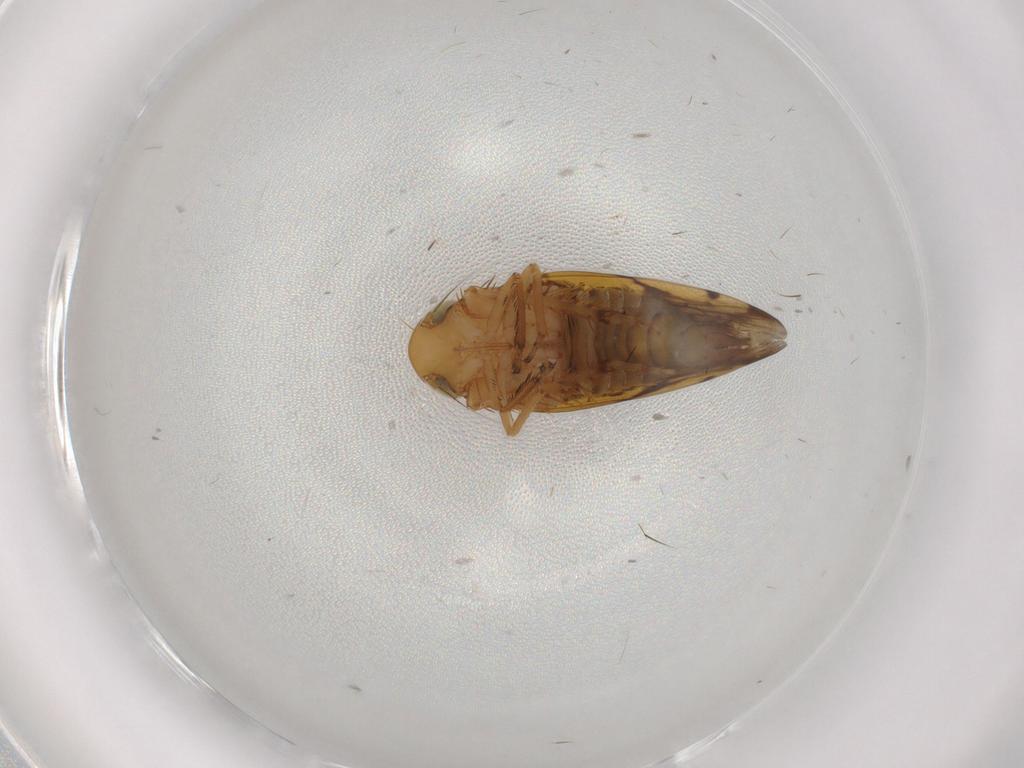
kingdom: Animalia
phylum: Arthropoda
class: Insecta
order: Hemiptera
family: Cicadellidae
